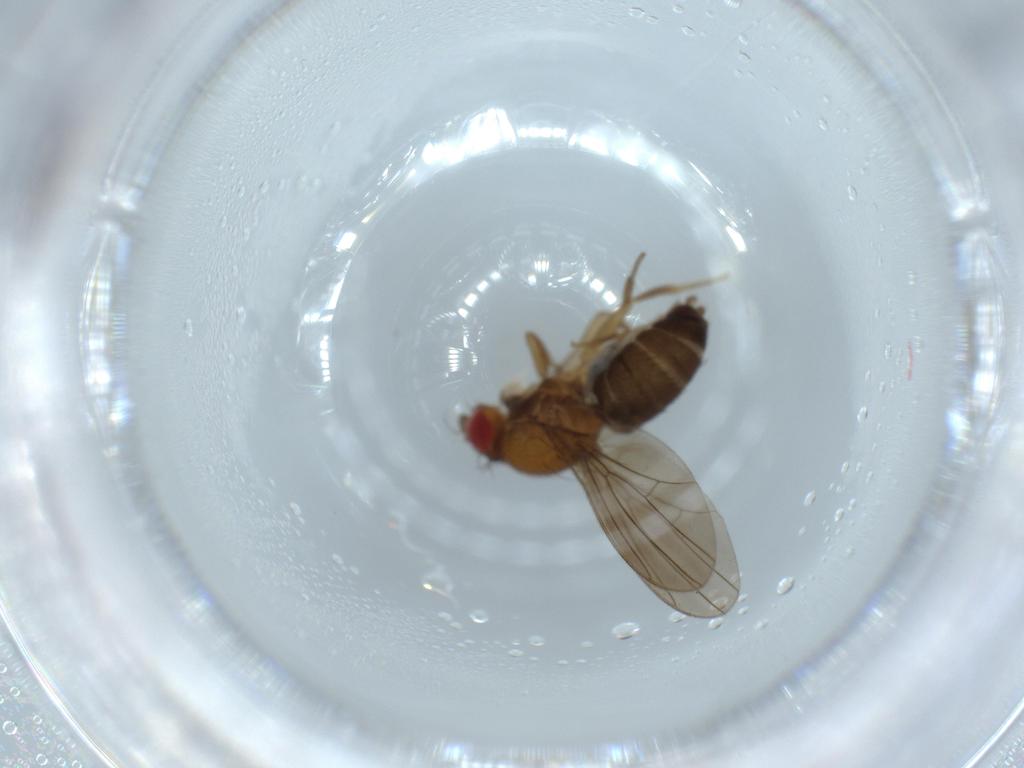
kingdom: Animalia
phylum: Arthropoda
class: Insecta
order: Diptera
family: Drosophilidae
